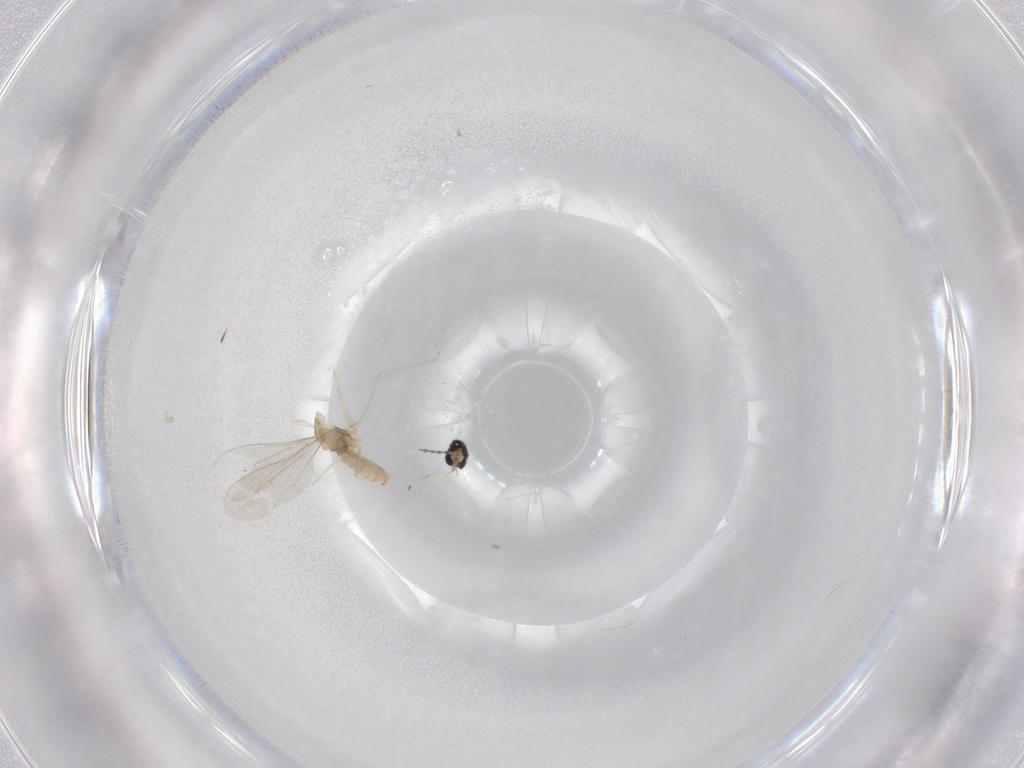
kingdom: Animalia
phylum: Arthropoda
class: Insecta
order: Diptera
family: Cecidomyiidae
